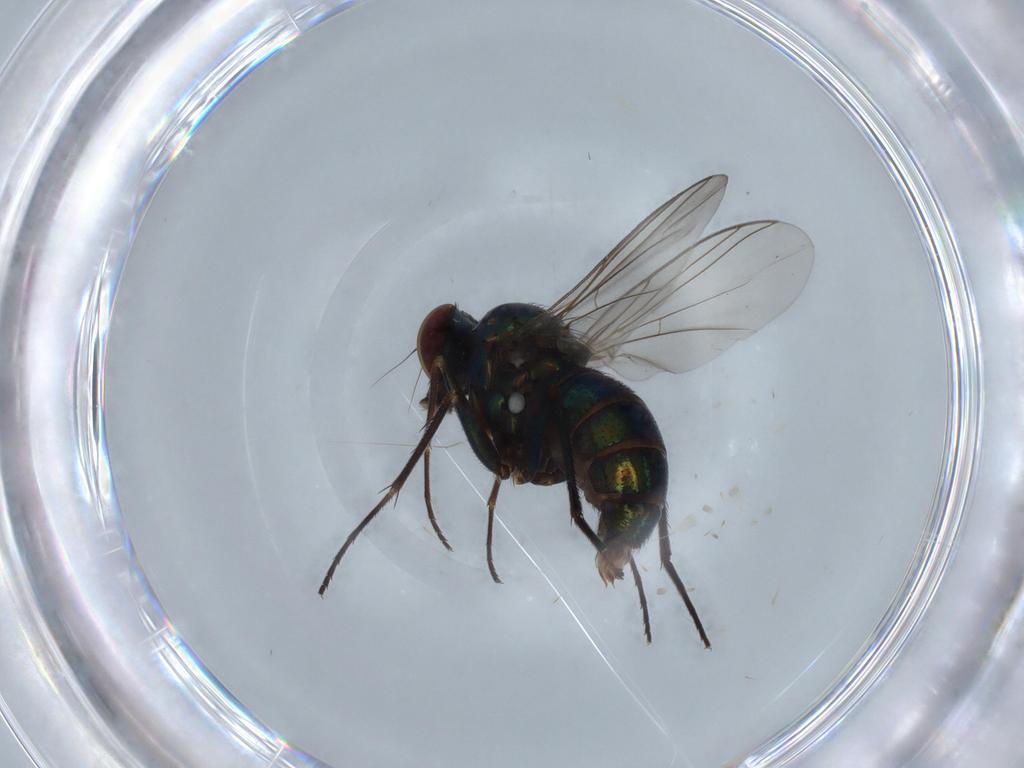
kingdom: Animalia
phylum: Arthropoda
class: Insecta
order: Diptera
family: Dolichopodidae
